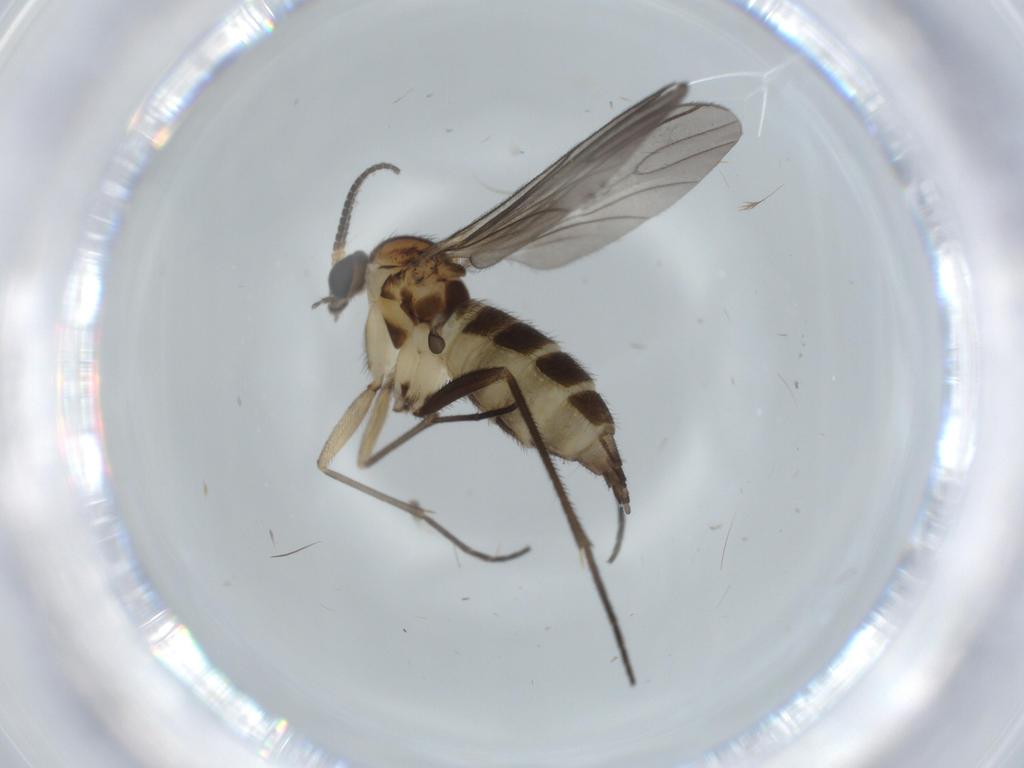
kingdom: Animalia
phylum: Arthropoda
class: Insecta
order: Diptera
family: Sciaridae
